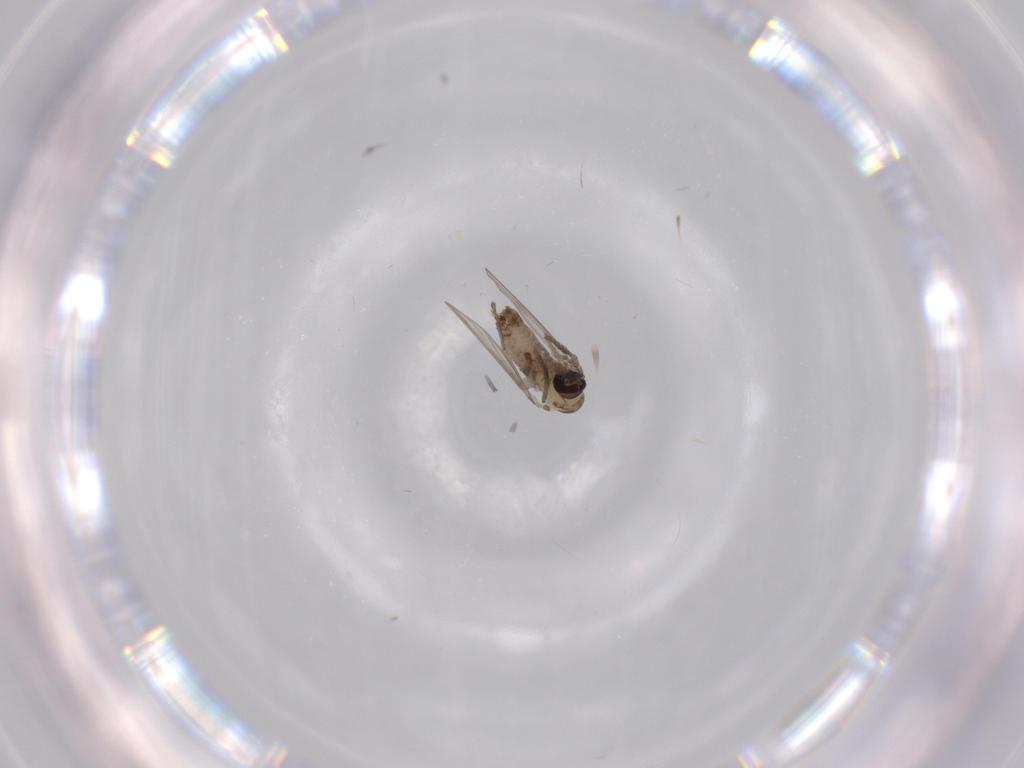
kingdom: Animalia
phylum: Arthropoda
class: Insecta
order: Diptera
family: Psychodidae
